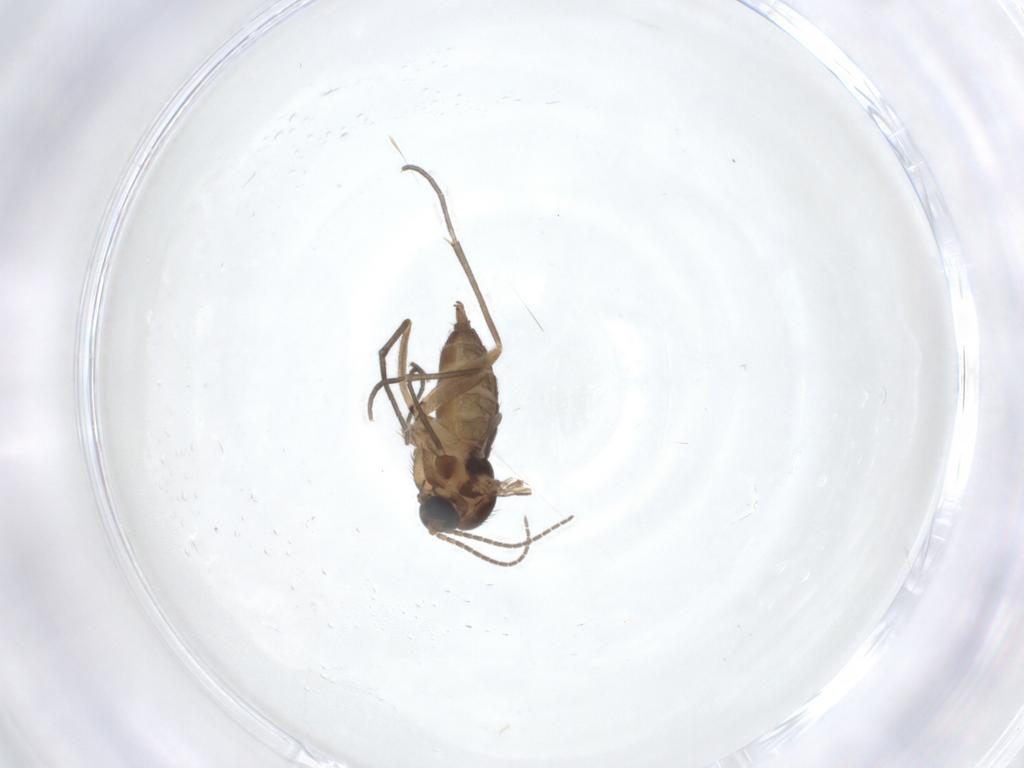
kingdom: Animalia
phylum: Arthropoda
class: Insecta
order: Diptera
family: Sciaridae
